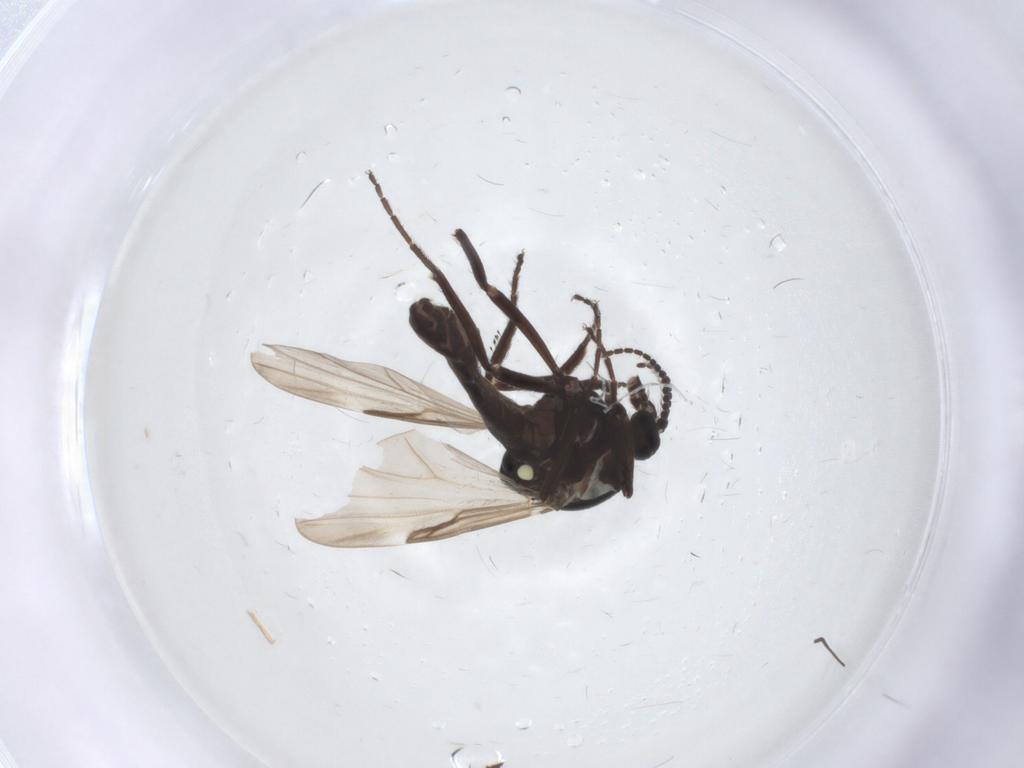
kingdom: Animalia
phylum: Arthropoda
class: Insecta
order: Diptera
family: Ceratopogonidae
